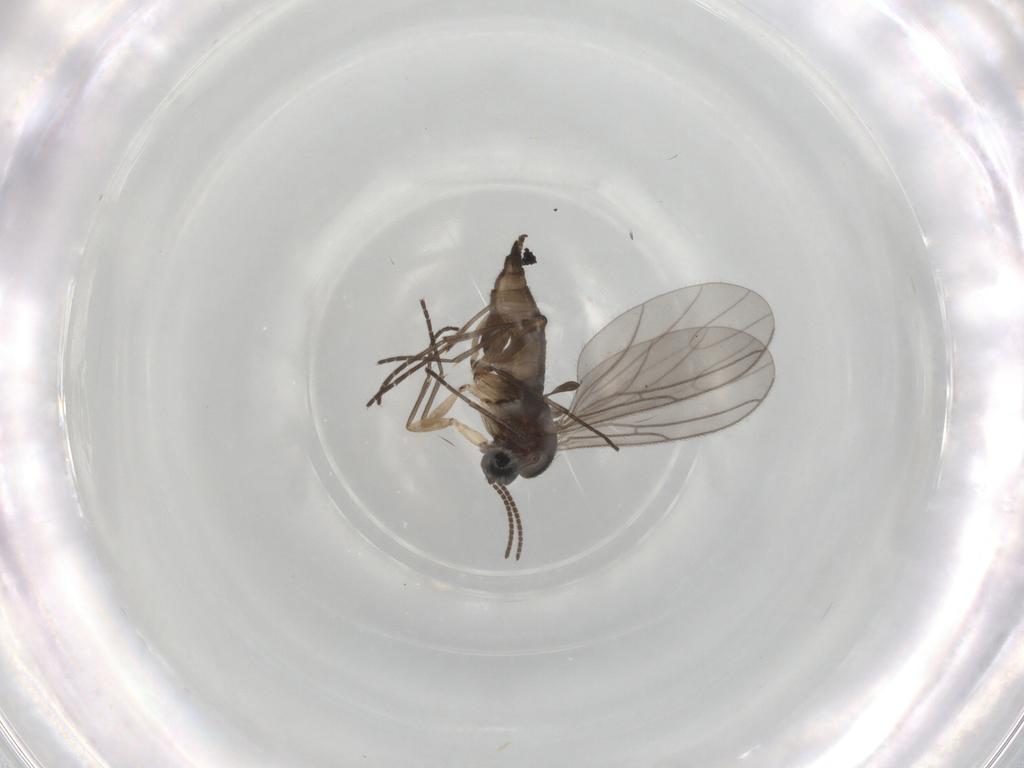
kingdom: Animalia
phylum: Arthropoda
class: Insecta
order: Diptera
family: Sciaridae
